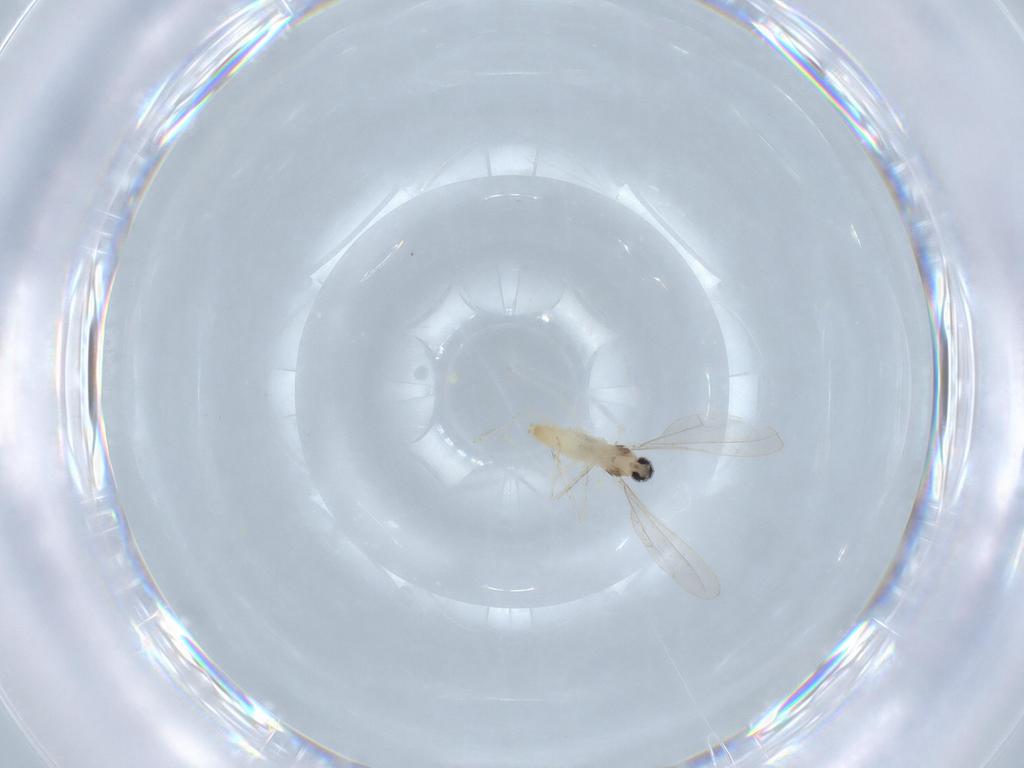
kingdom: Animalia
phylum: Arthropoda
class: Insecta
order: Diptera
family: Cecidomyiidae
